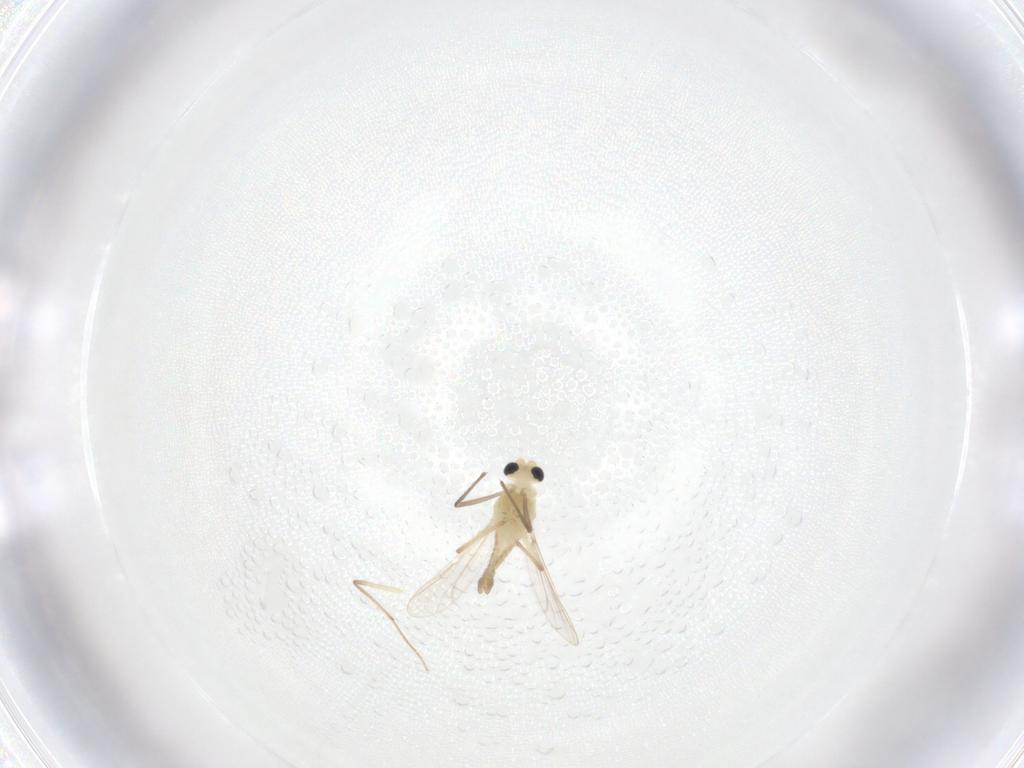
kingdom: Animalia
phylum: Arthropoda
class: Insecta
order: Diptera
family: Chironomidae
